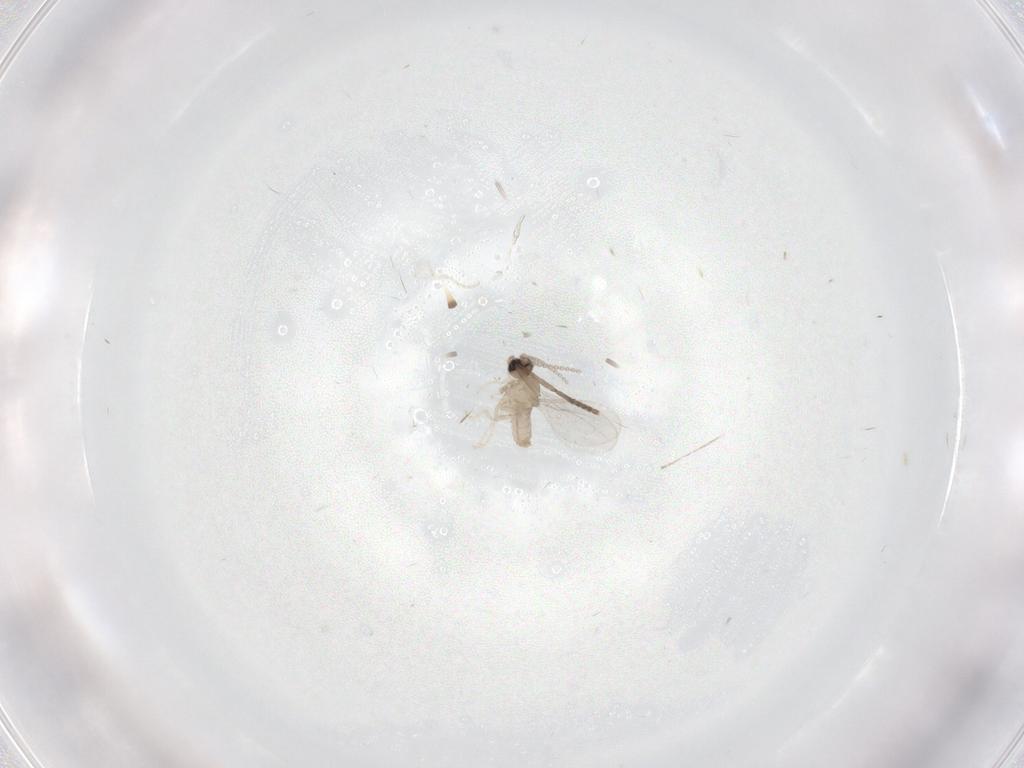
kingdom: Animalia
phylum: Arthropoda
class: Insecta
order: Diptera
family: Cecidomyiidae
